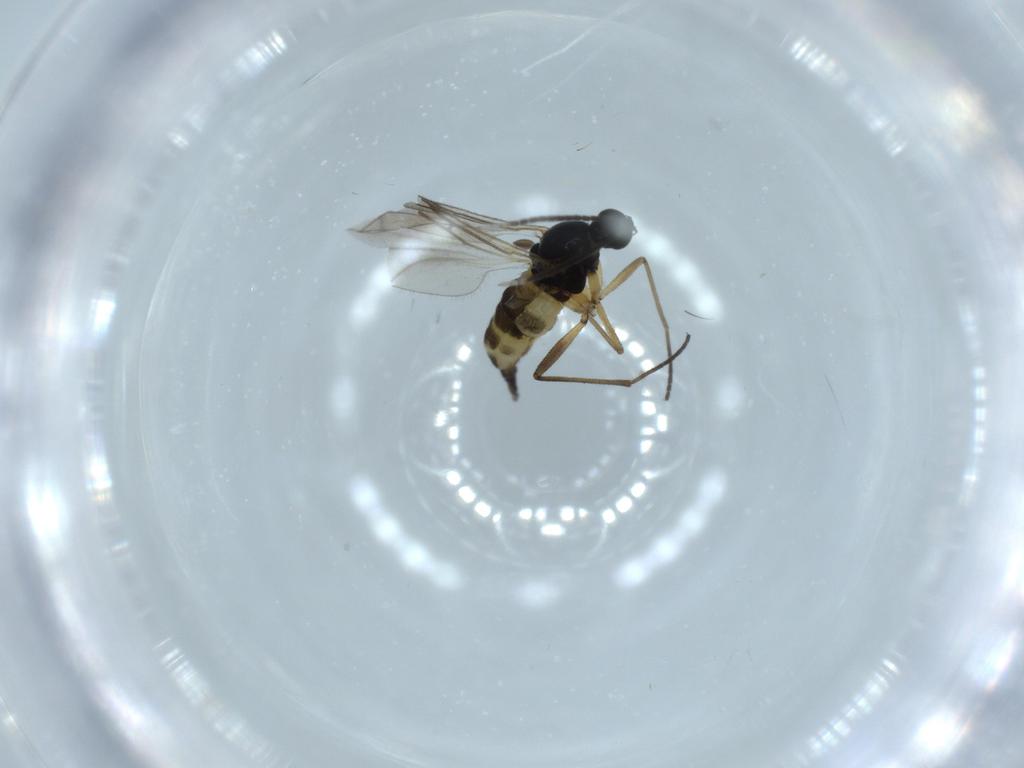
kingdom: Animalia
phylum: Arthropoda
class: Insecta
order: Diptera
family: Sciaridae
